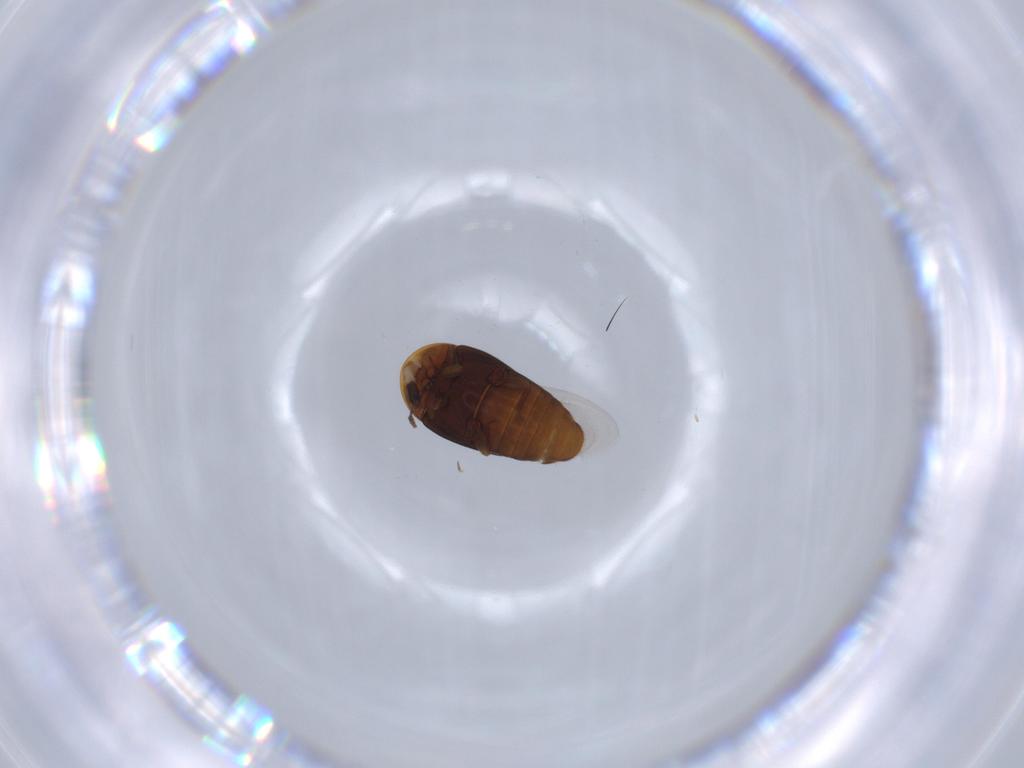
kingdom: Animalia
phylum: Arthropoda
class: Insecta
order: Coleoptera
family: Corylophidae
